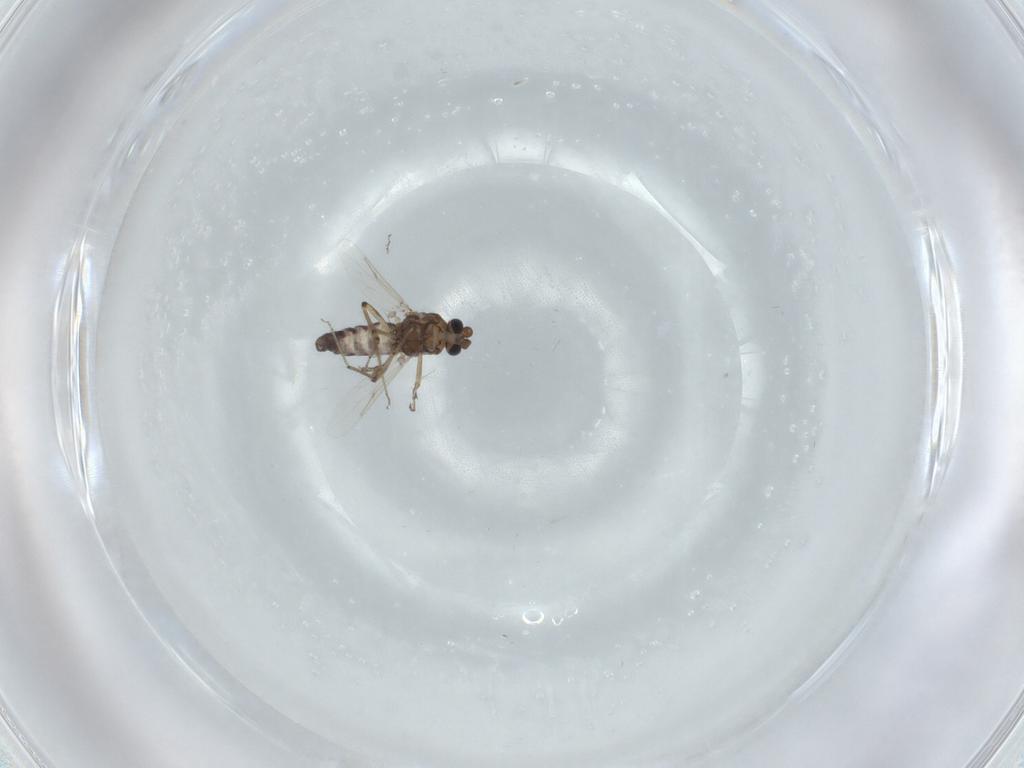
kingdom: Animalia
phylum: Arthropoda
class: Insecta
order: Diptera
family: Ceratopogonidae
